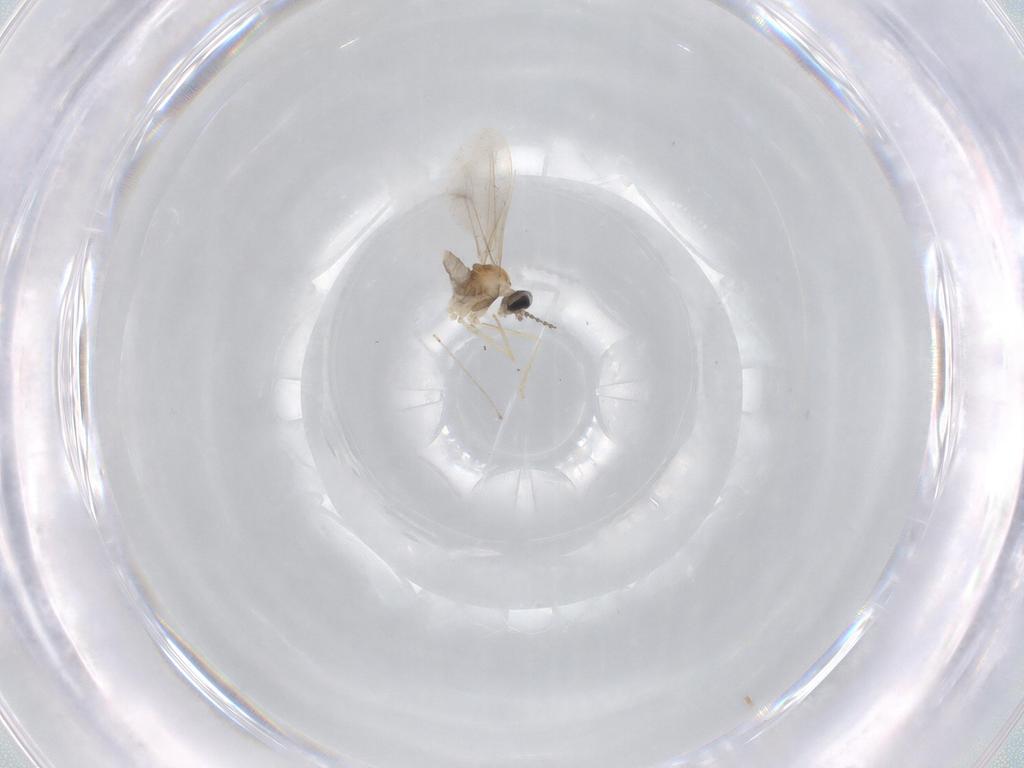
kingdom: Animalia
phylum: Arthropoda
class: Insecta
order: Diptera
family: Cecidomyiidae
